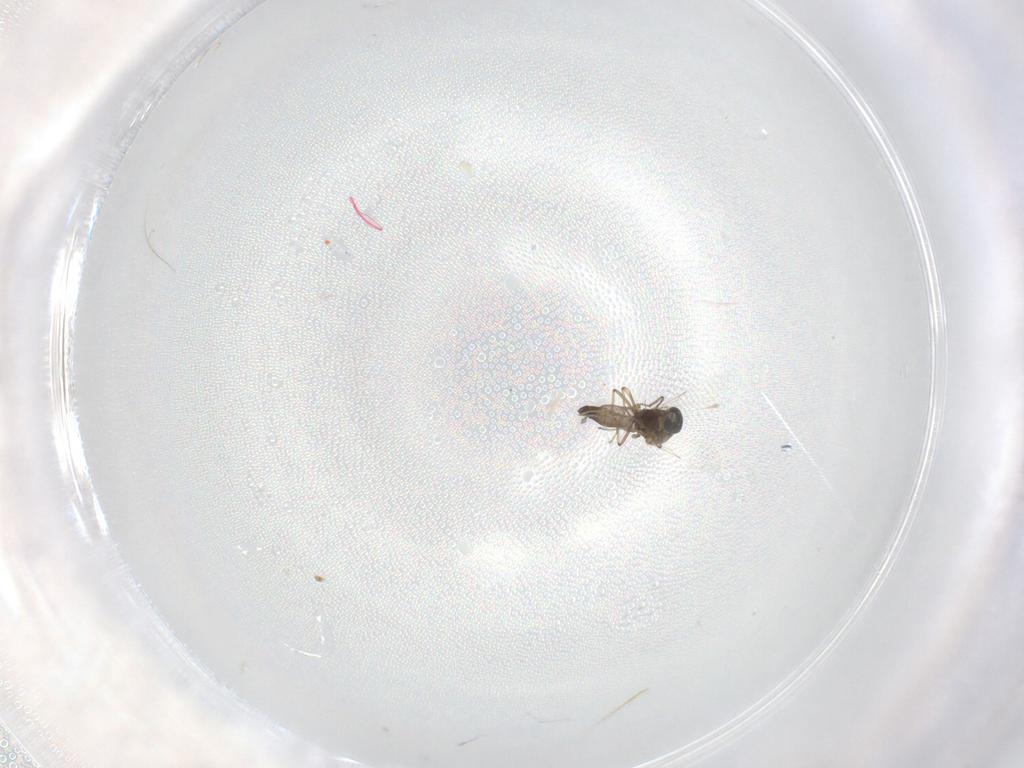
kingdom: Animalia
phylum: Arthropoda
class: Insecta
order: Diptera
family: Ceratopogonidae
